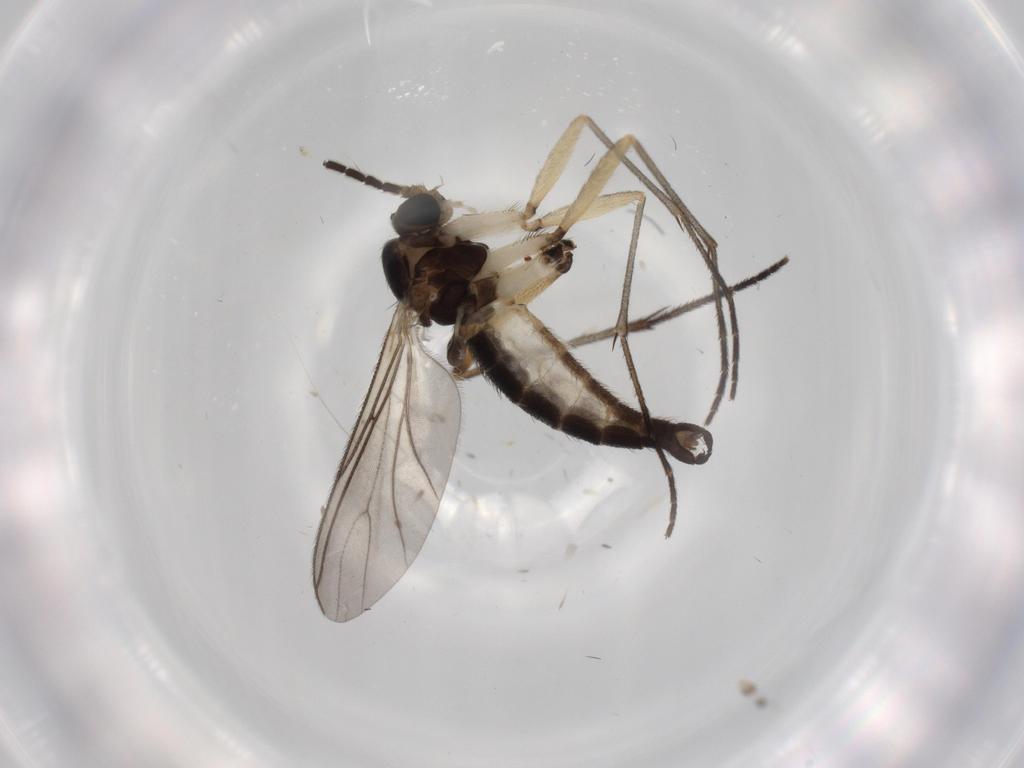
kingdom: Animalia
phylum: Arthropoda
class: Insecta
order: Diptera
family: Sciaridae
